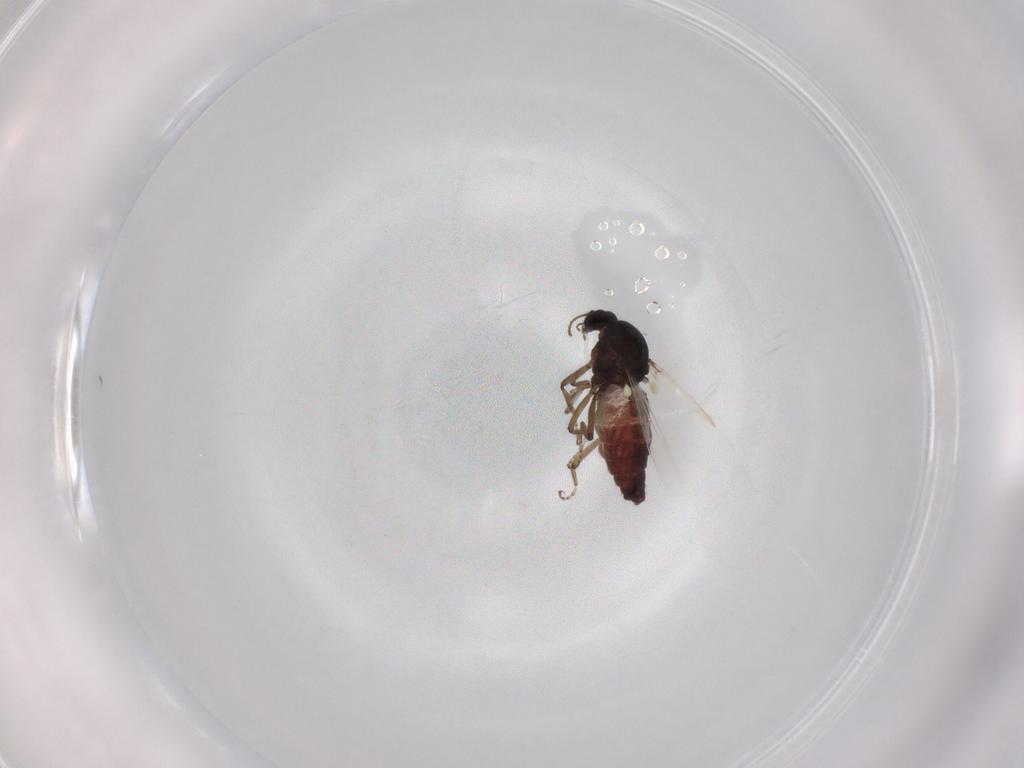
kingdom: Animalia
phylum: Arthropoda
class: Insecta
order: Diptera
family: Ceratopogonidae
